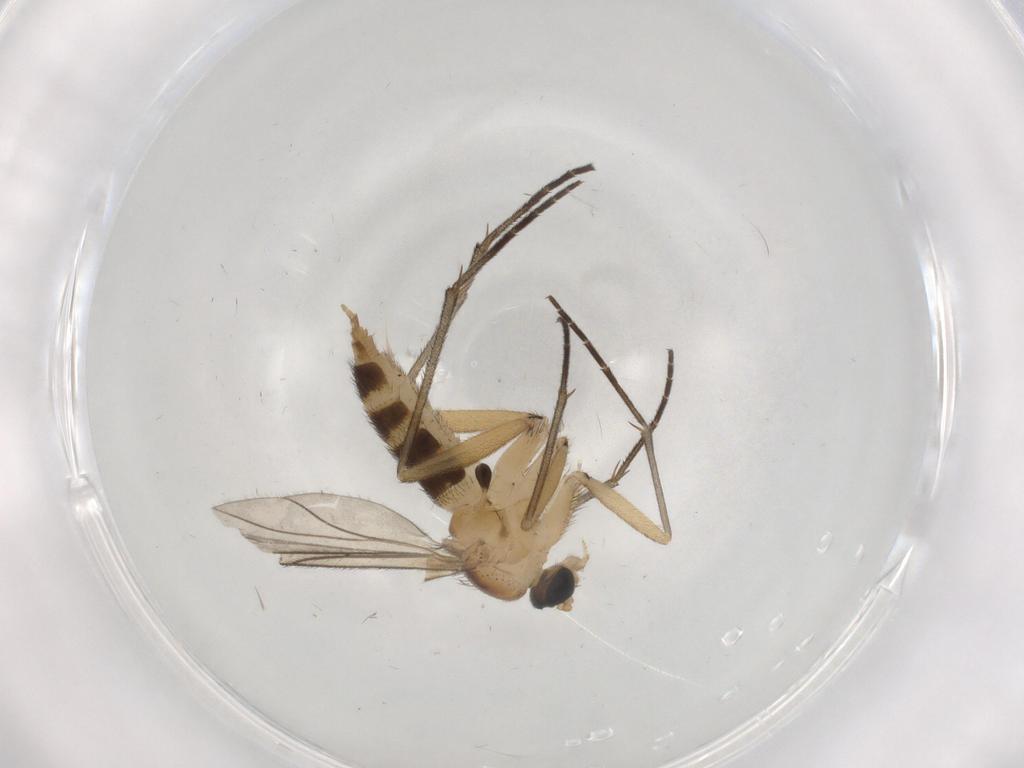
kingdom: Animalia
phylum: Arthropoda
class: Insecta
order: Diptera
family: Sciaridae
